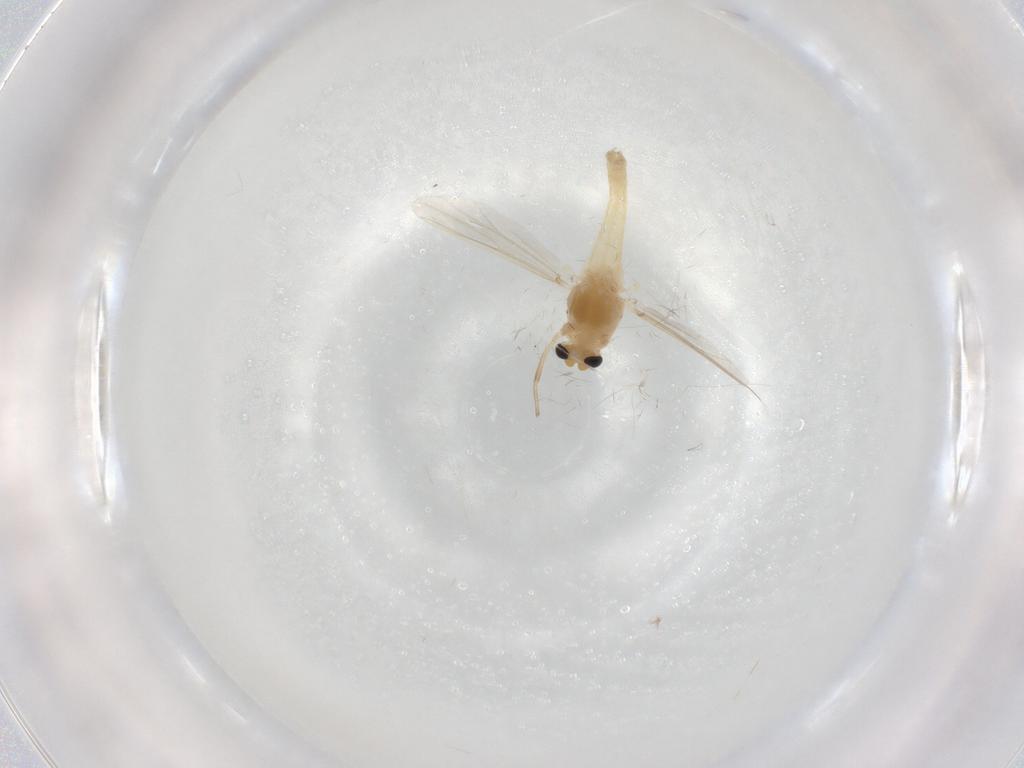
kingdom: Animalia
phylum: Arthropoda
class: Insecta
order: Diptera
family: Chironomidae
